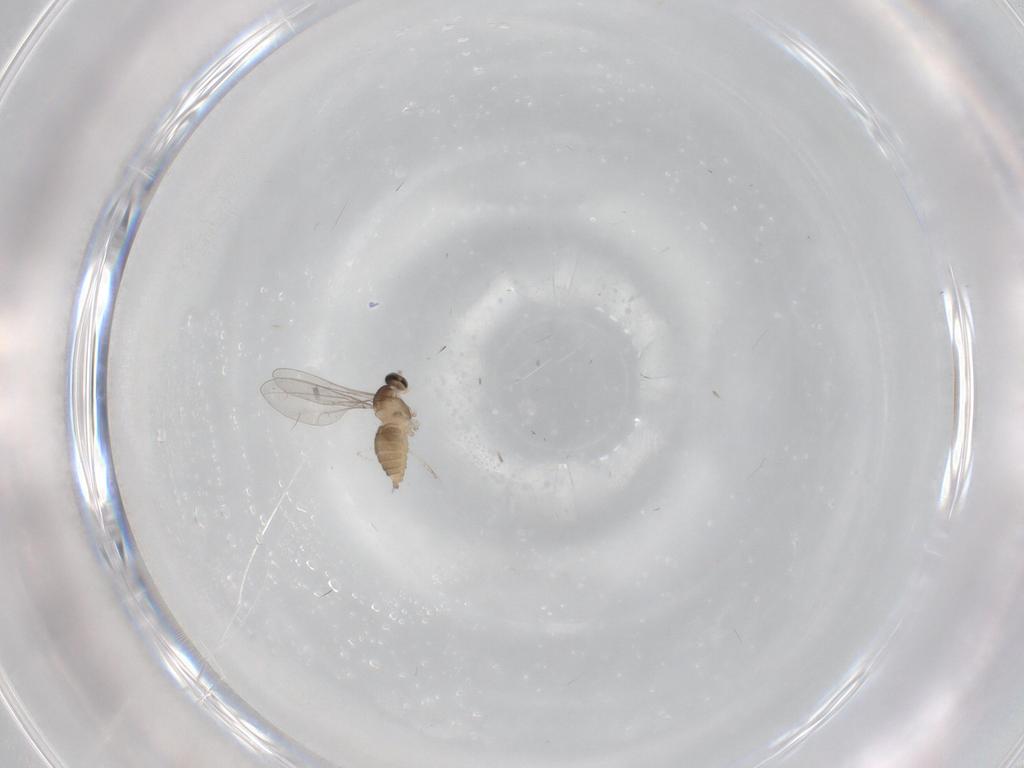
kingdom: Animalia
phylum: Arthropoda
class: Insecta
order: Diptera
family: Cecidomyiidae
